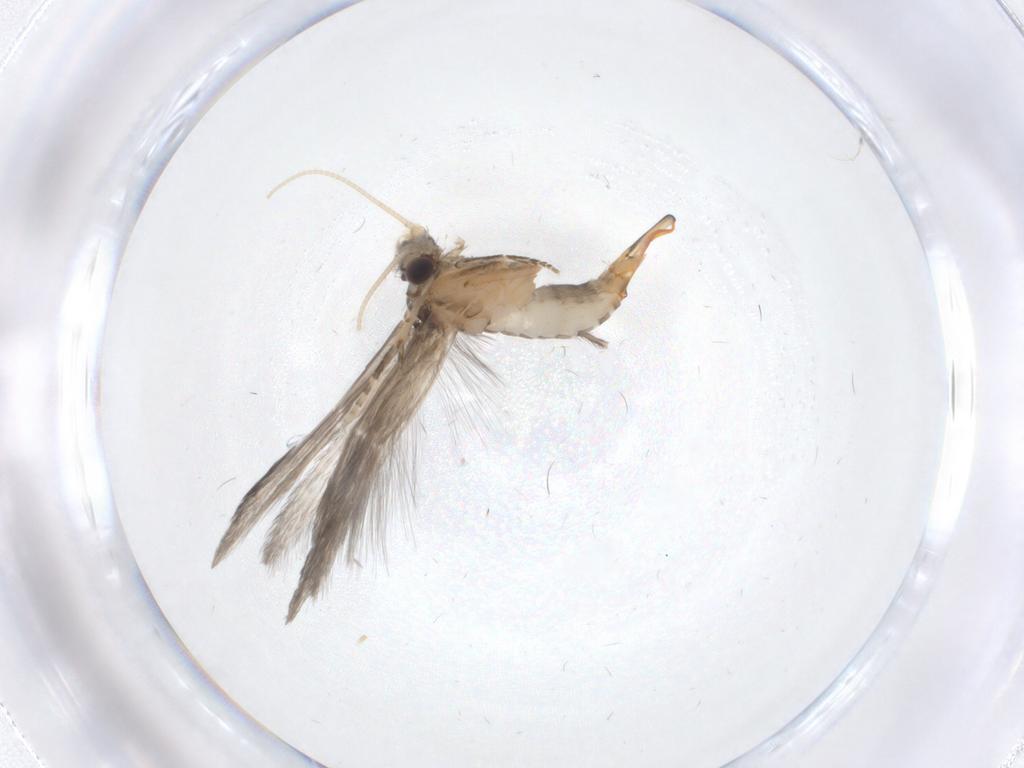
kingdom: Animalia
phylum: Arthropoda
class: Insecta
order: Trichoptera
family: Hydroptilidae
